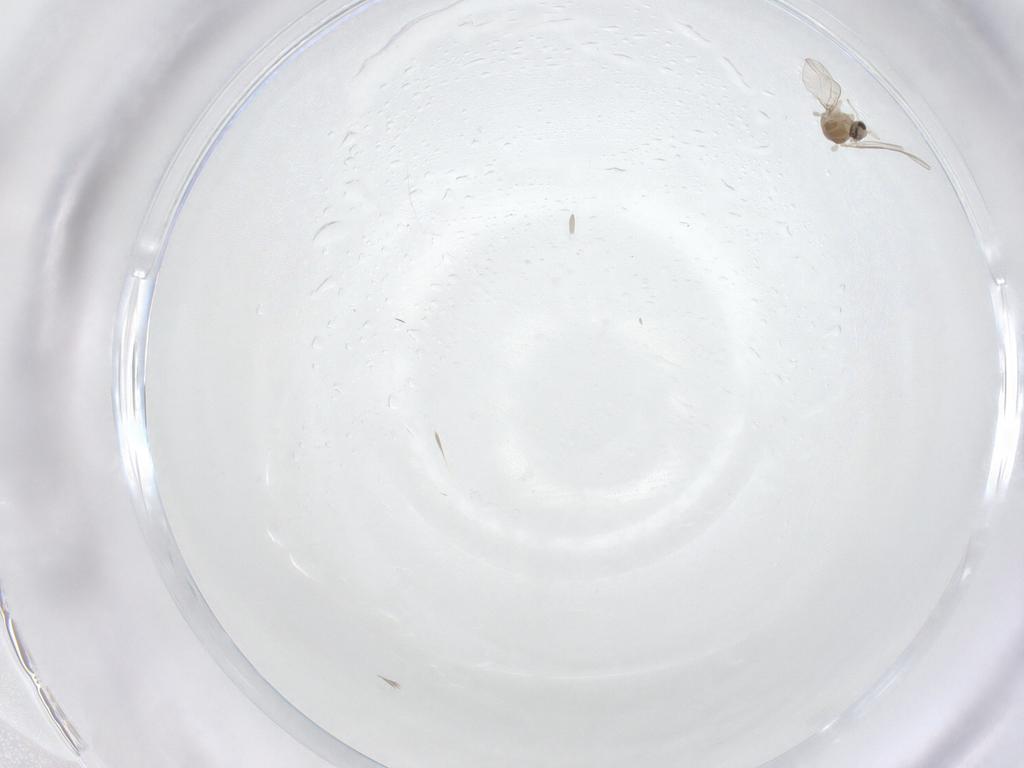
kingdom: Animalia
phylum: Arthropoda
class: Insecta
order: Diptera
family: Cecidomyiidae
